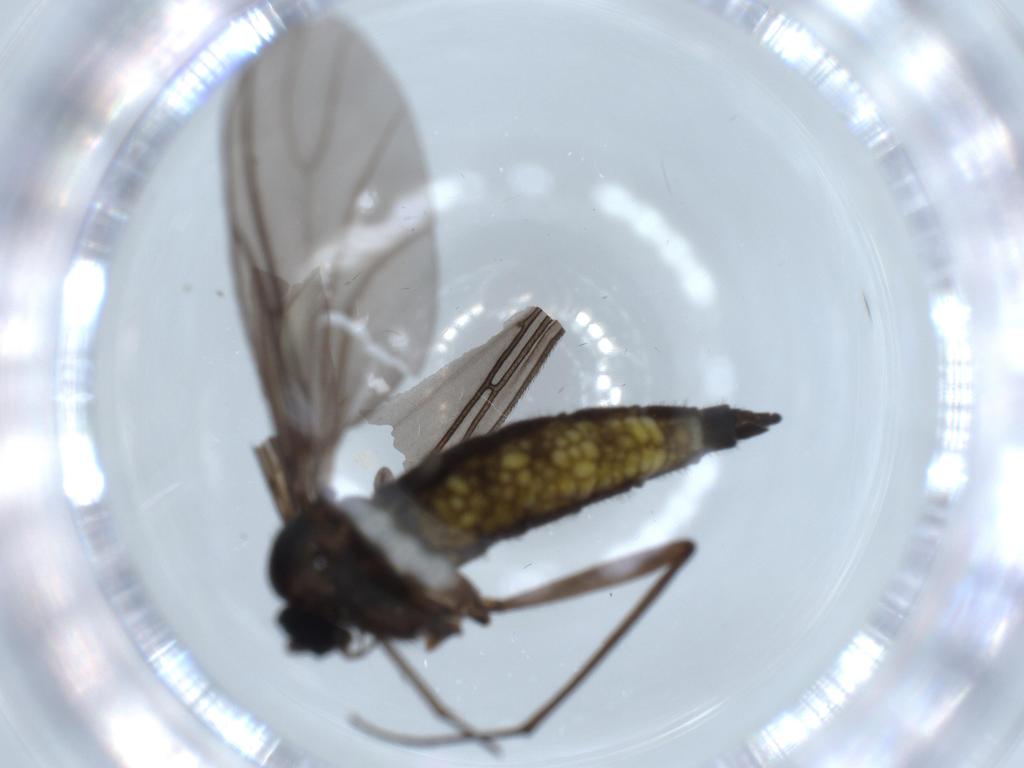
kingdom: Animalia
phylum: Arthropoda
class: Insecta
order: Diptera
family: Sciaridae
